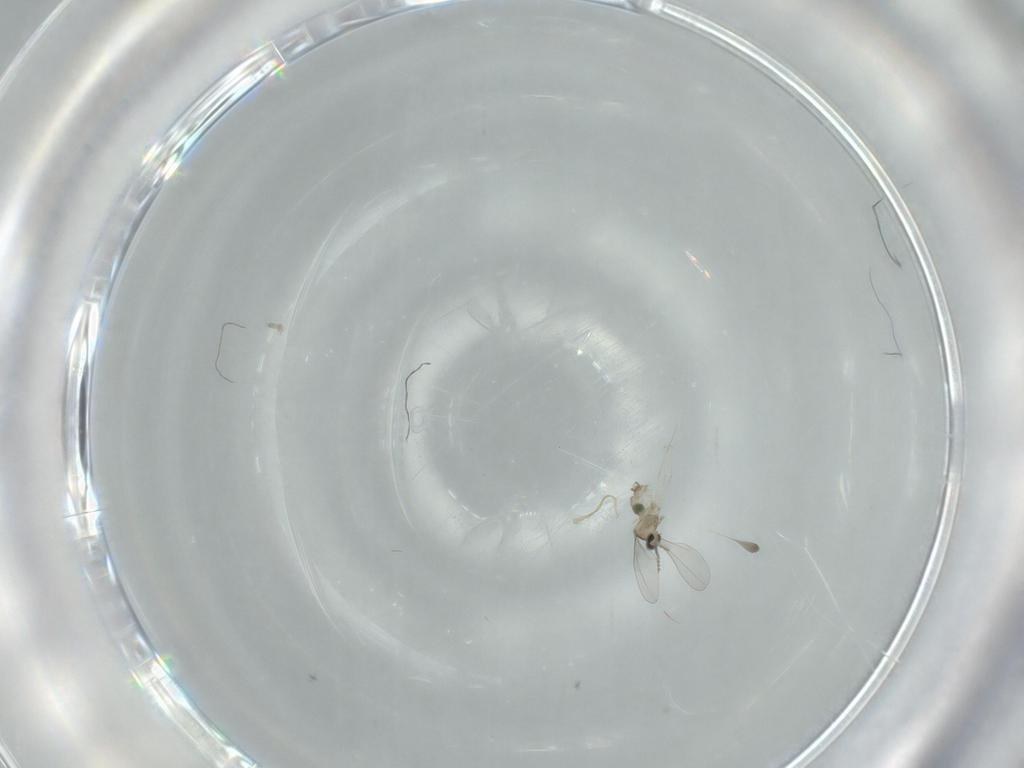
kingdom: Animalia
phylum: Arthropoda
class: Insecta
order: Diptera
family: Cecidomyiidae
